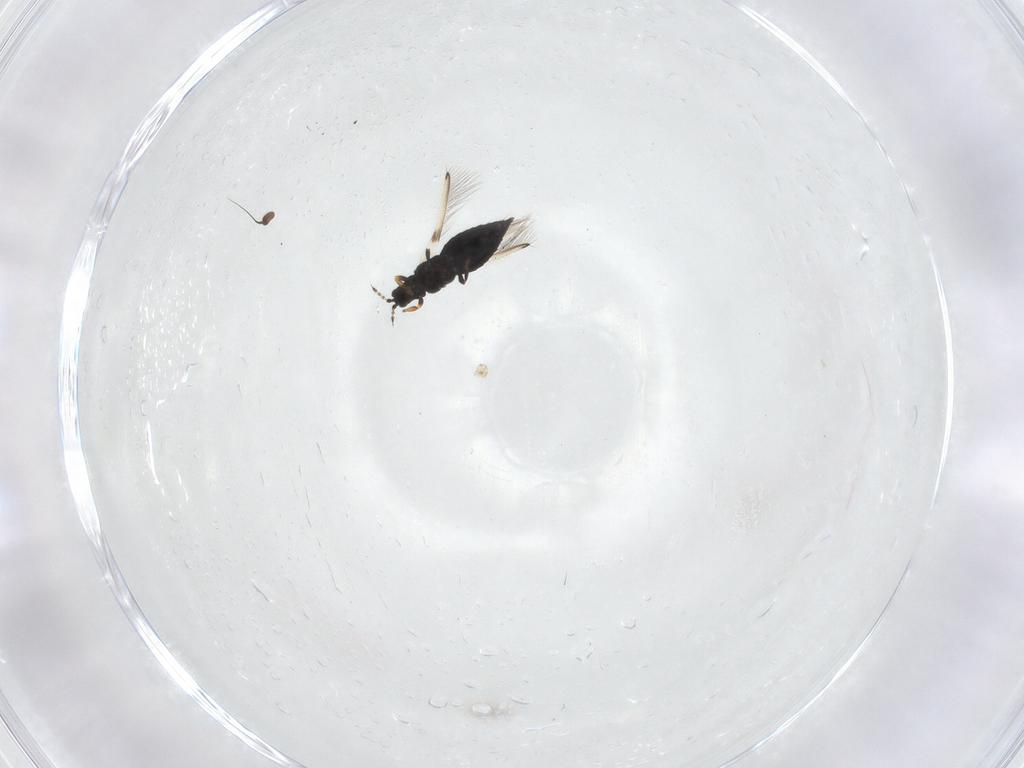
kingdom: Animalia
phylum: Arthropoda
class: Insecta
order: Thysanoptera
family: Thripidae
